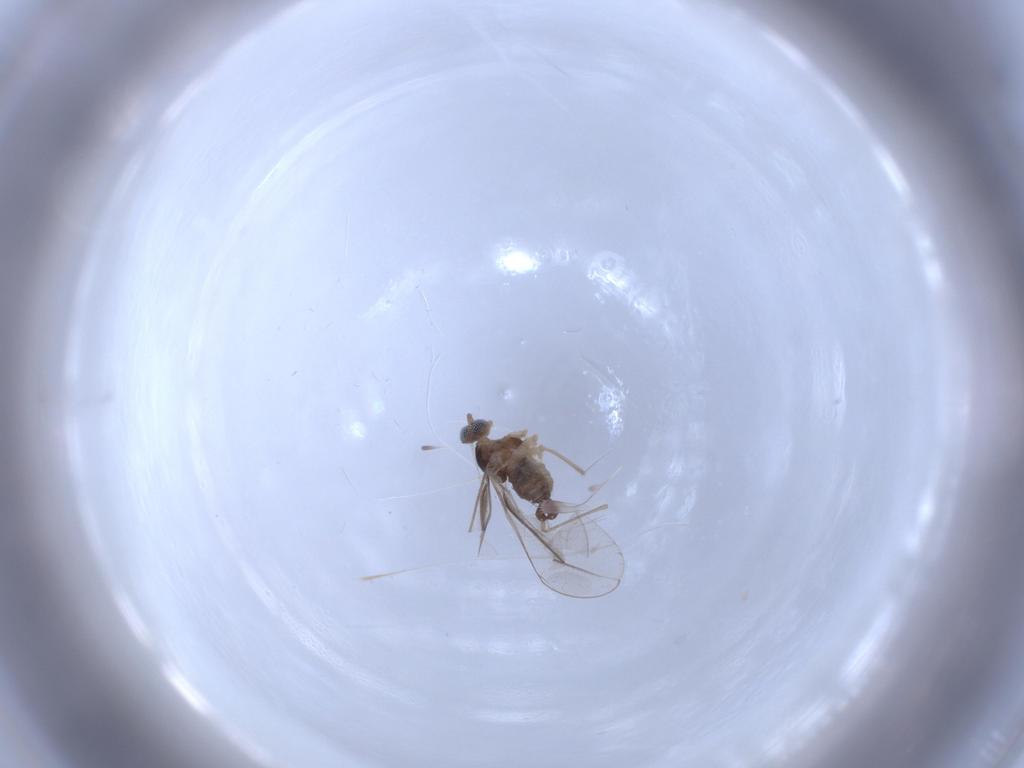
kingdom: Animalia
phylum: Arthropoda
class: Insecta
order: Diptera
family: Cecidomyiidae
